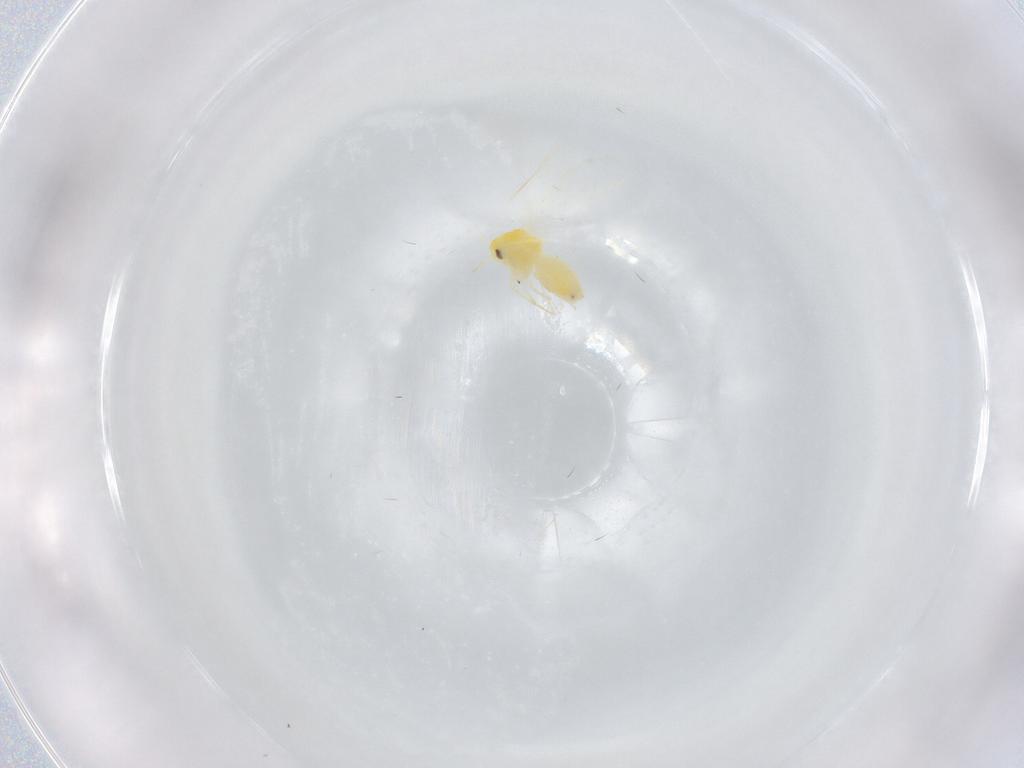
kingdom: Animalia
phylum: Arthropoda
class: Insecta
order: Hemiptera
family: Aleyrodidae
